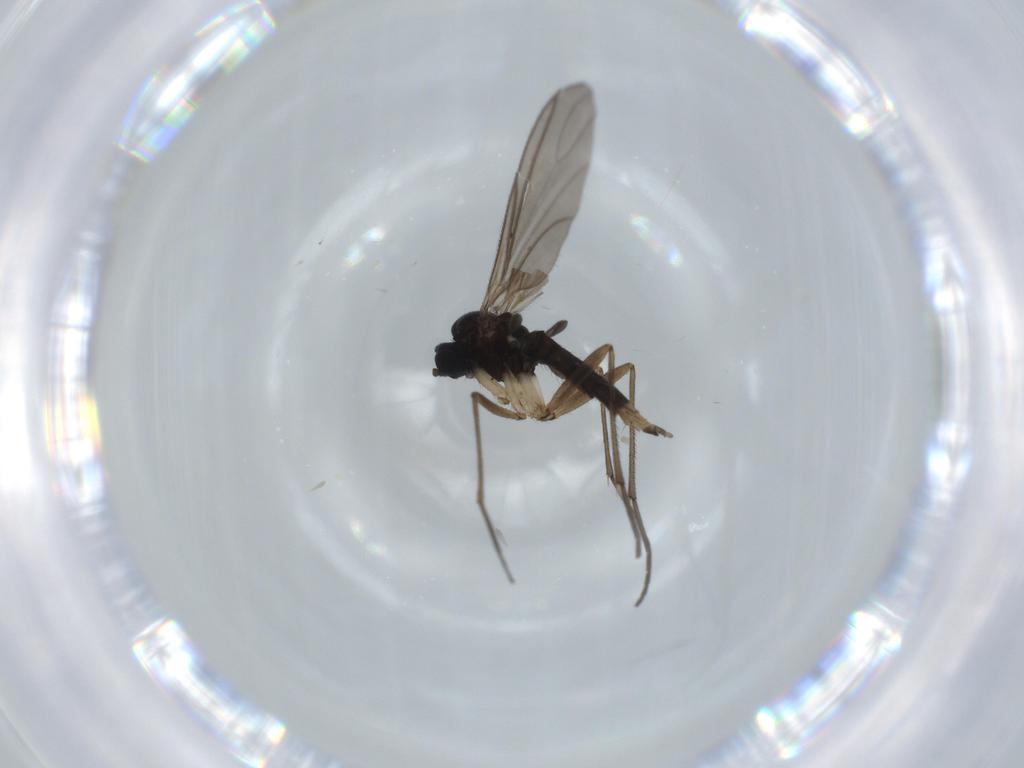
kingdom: Animalia
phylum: Arthropoda
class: Insecta
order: Diptera
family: Sciaridae
